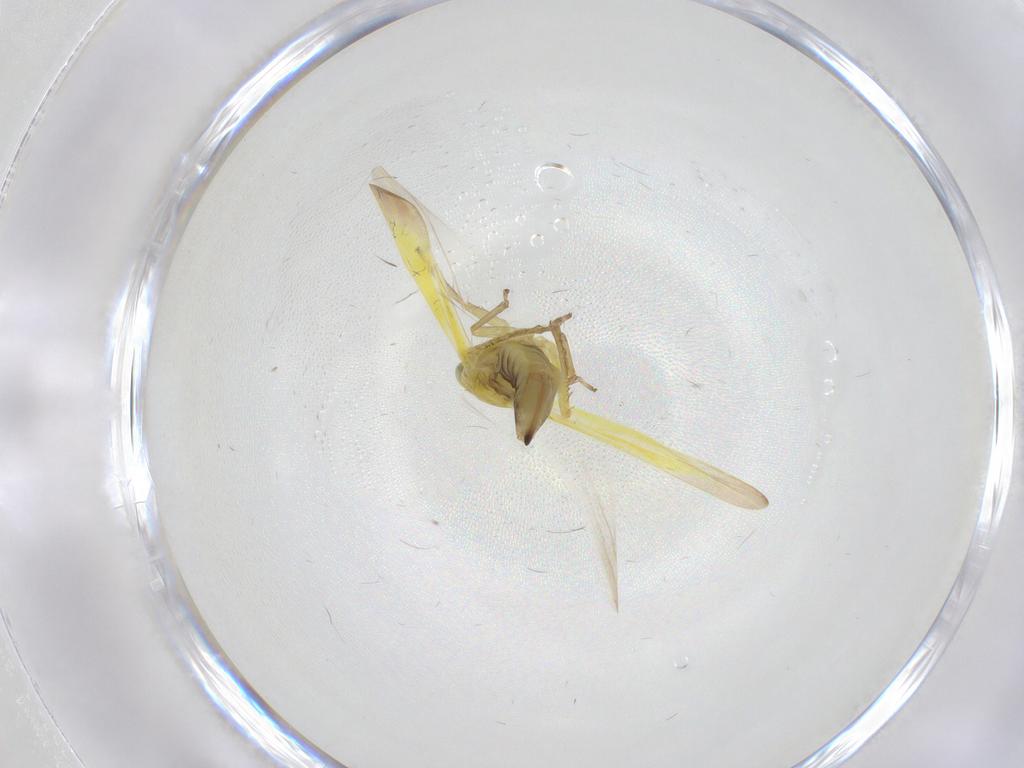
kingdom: Animalia
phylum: Arthropoda
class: Insecta
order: Hemiptera
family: Cicadellidae
